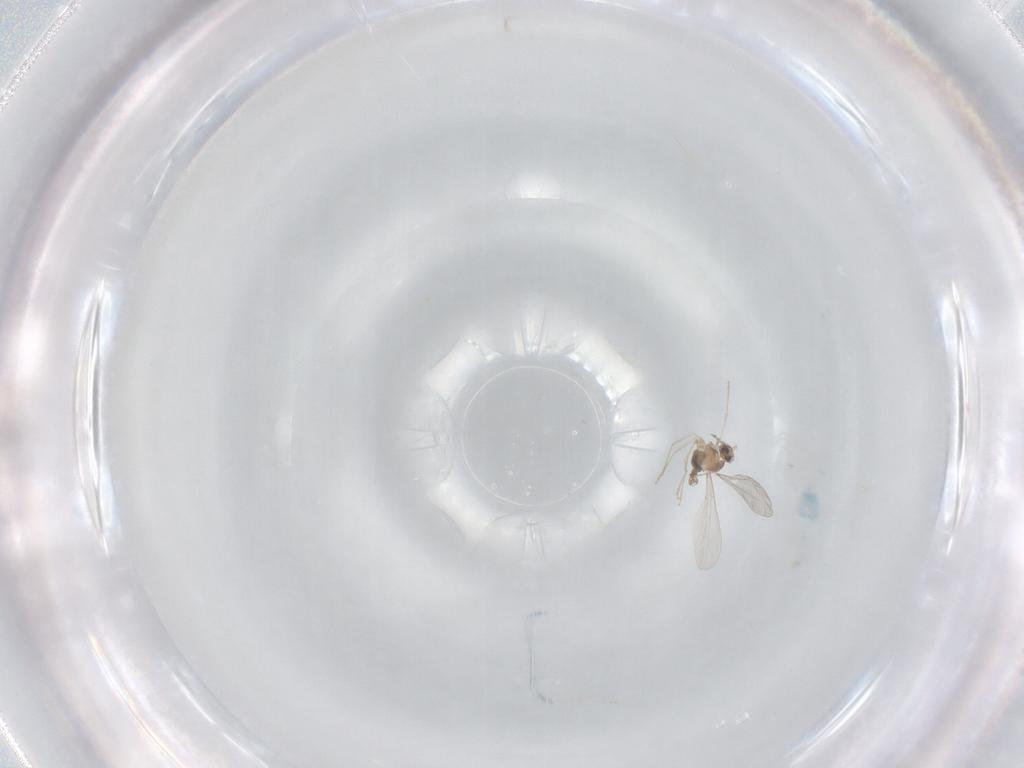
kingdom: Animalia
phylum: Arthropoda
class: Insecta
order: Diptera
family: Cecidomyiidae
